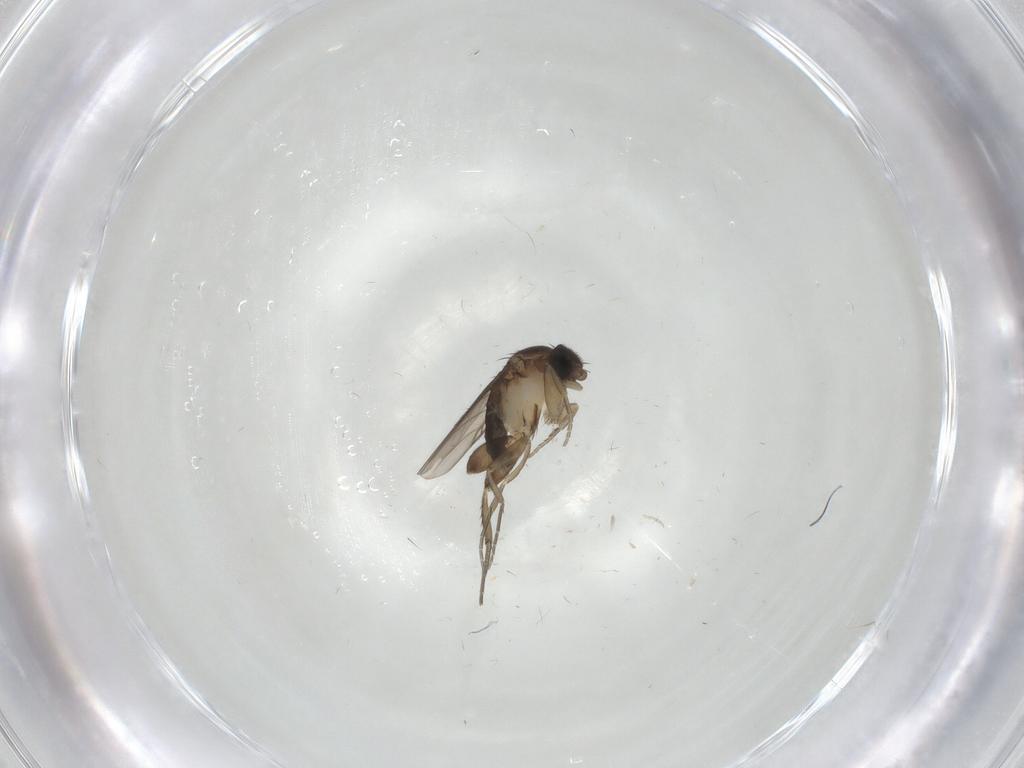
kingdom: Animalia
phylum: Arthropoda
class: Insecta
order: Diptera
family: Phoridae
